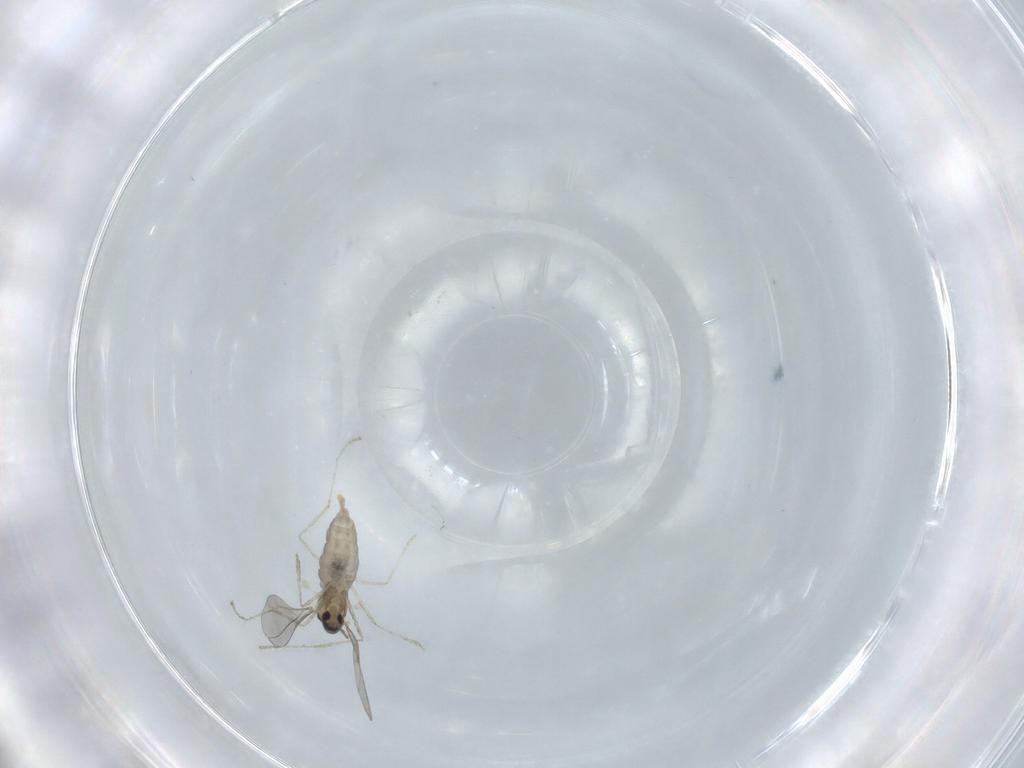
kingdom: Animalia
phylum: Arthropoda
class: Insecta
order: Diptera
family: Chironomidae
